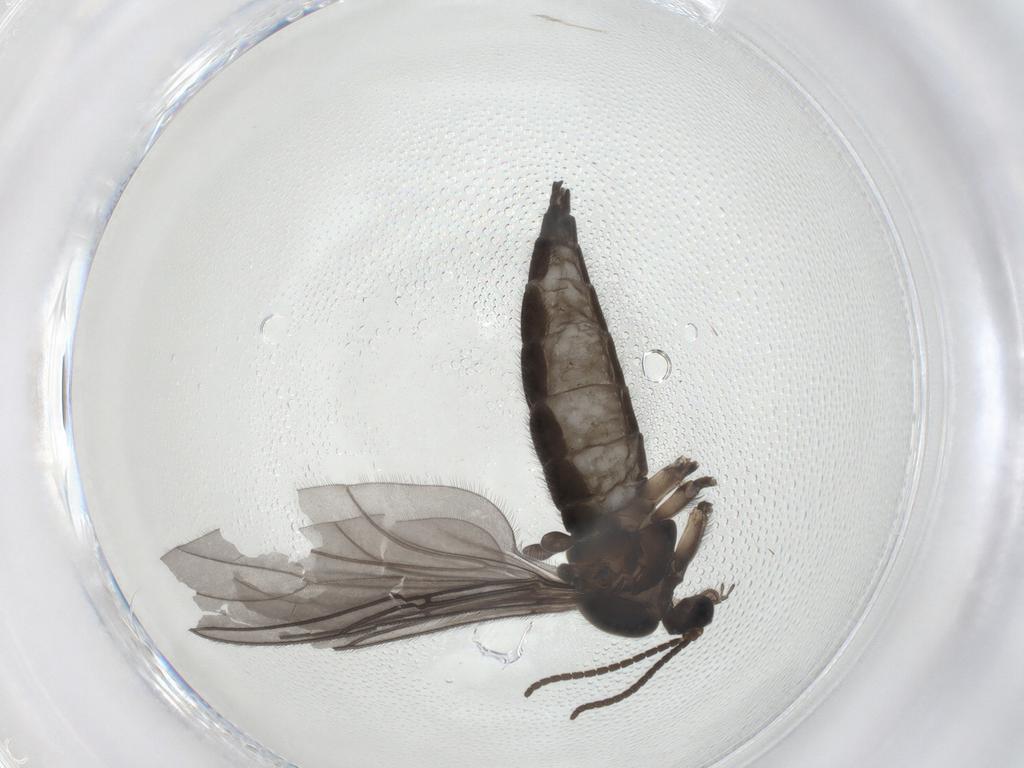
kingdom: Animalia
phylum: Arthropoda
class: Insecta
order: Diptera
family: Sciaridae
